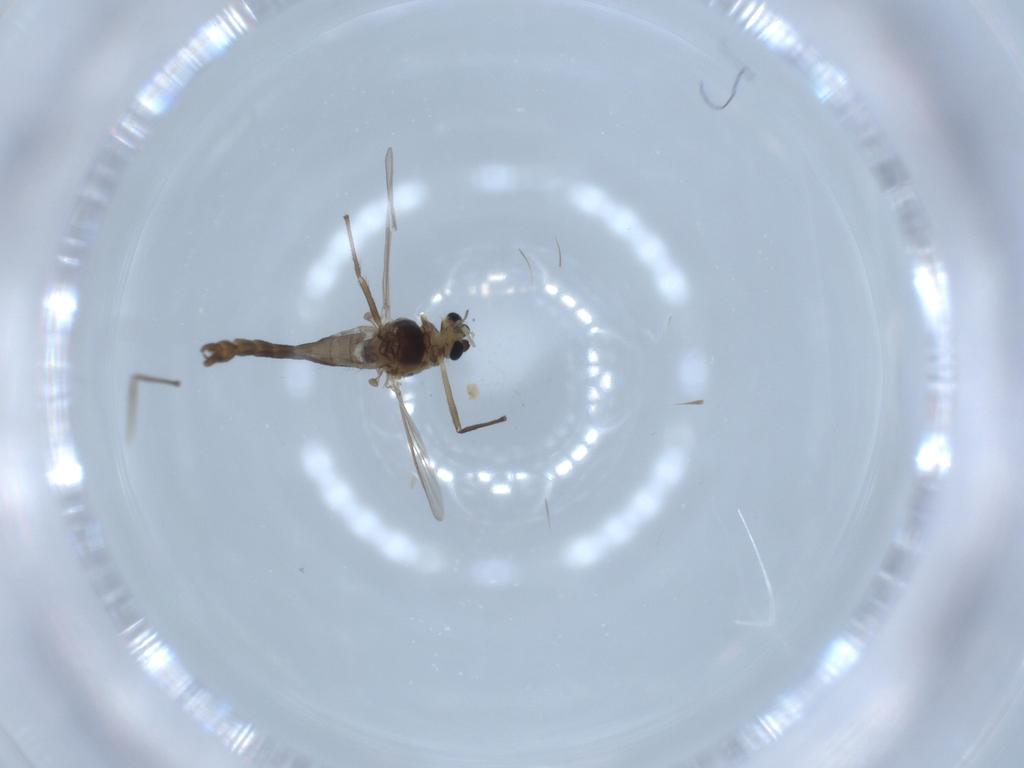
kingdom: Animalia
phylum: Arthropoda
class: Insecta
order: Diptera
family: Chironomidae
